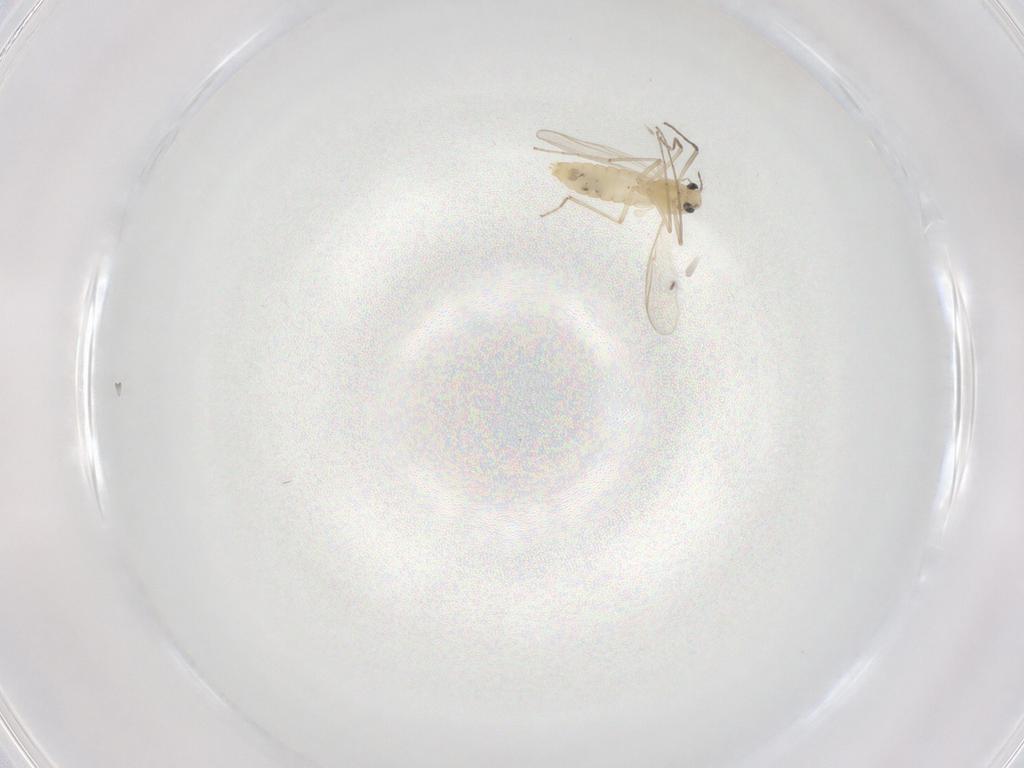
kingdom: Animalia
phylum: Arthropoda
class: Insecta
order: Diptera
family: Chironomidae
